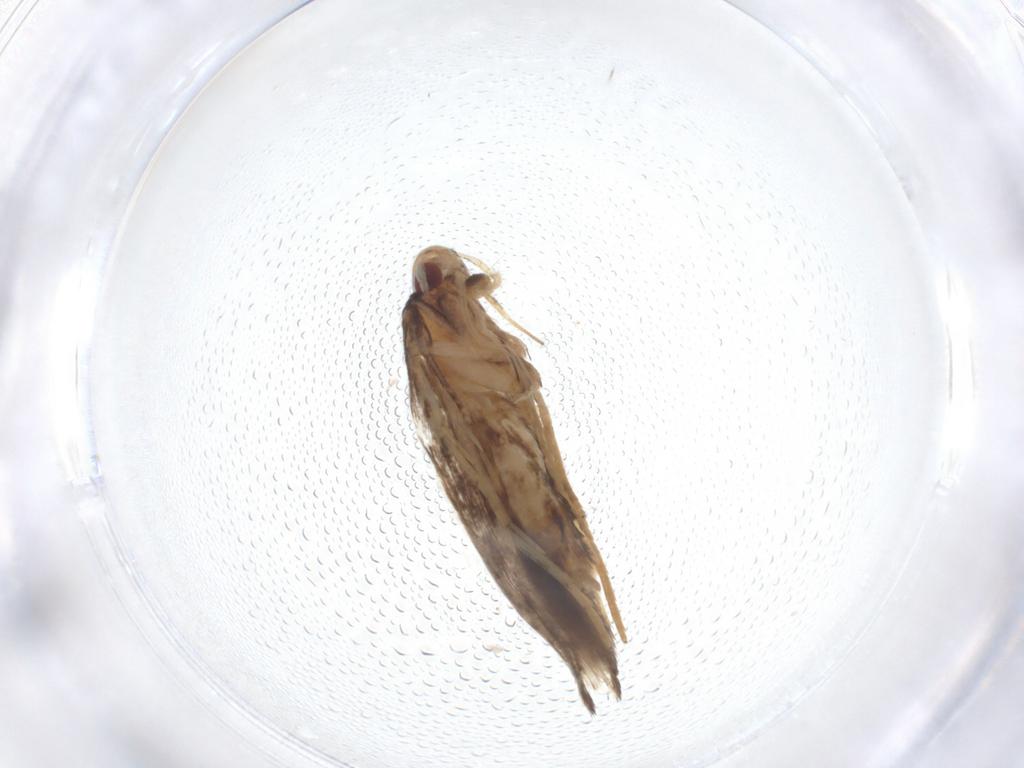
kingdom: Animalia
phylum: Arthropoda
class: Insecta
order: Lepidoptera
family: Cosmopterigidae
